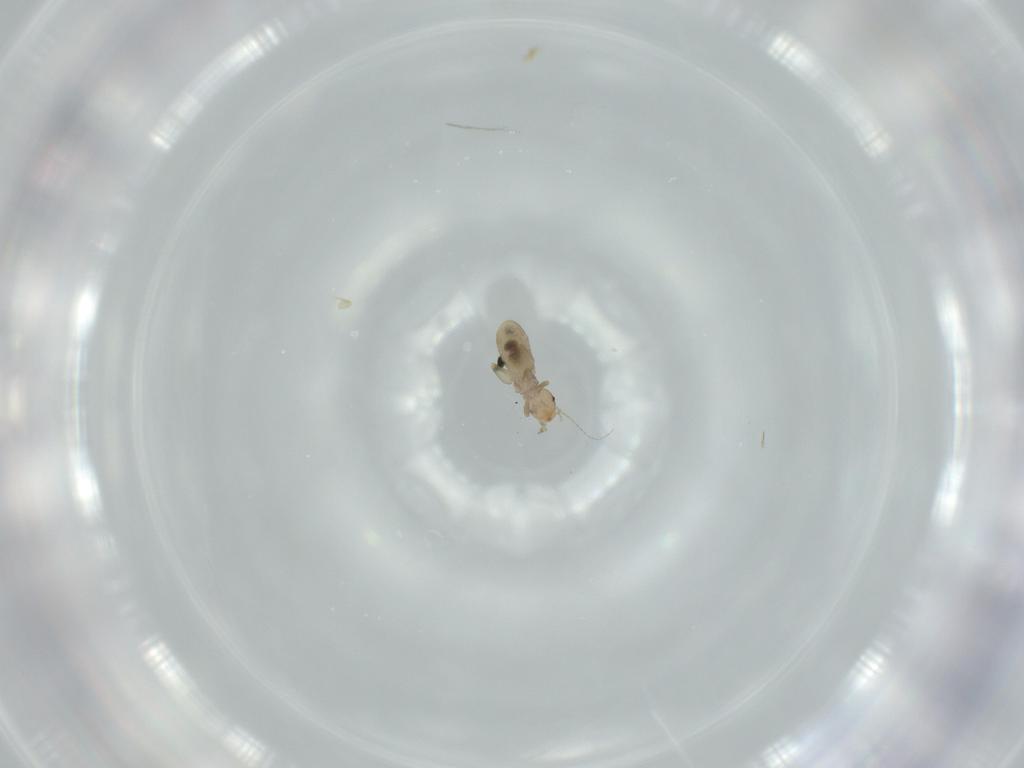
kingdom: Animalia
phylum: Arthropoda
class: Insecta
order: Psocodea
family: Liposcelididae
